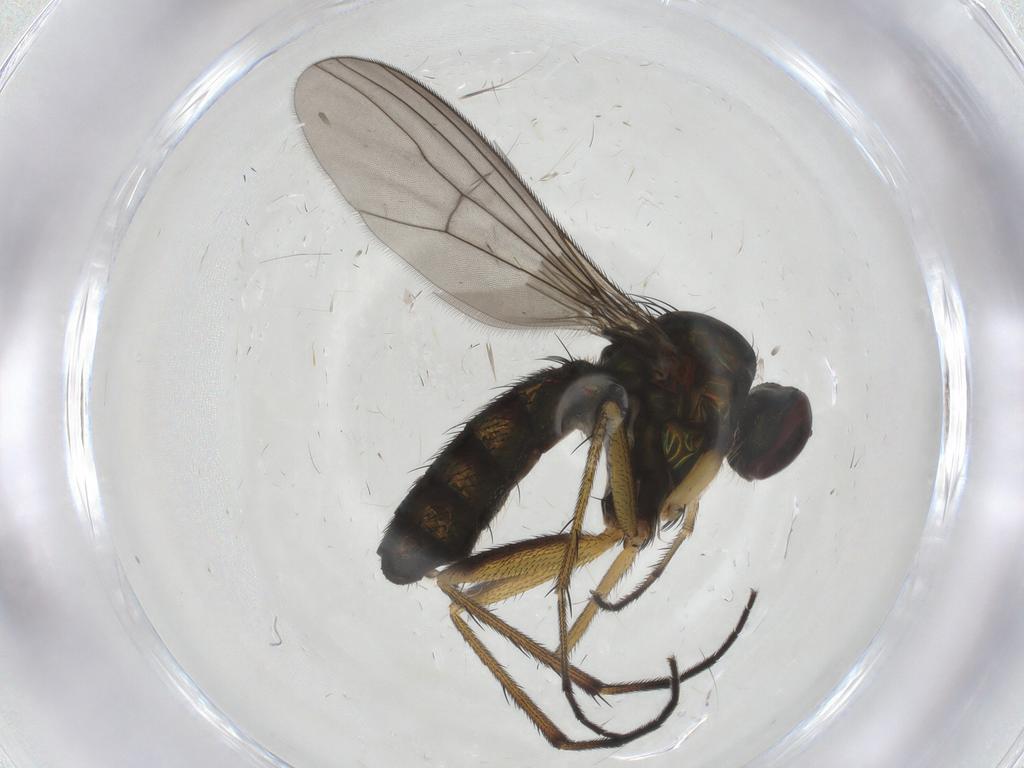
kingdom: Animalia
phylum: Arthropoda
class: Insecta
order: Diptera
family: Dolichopodidae
